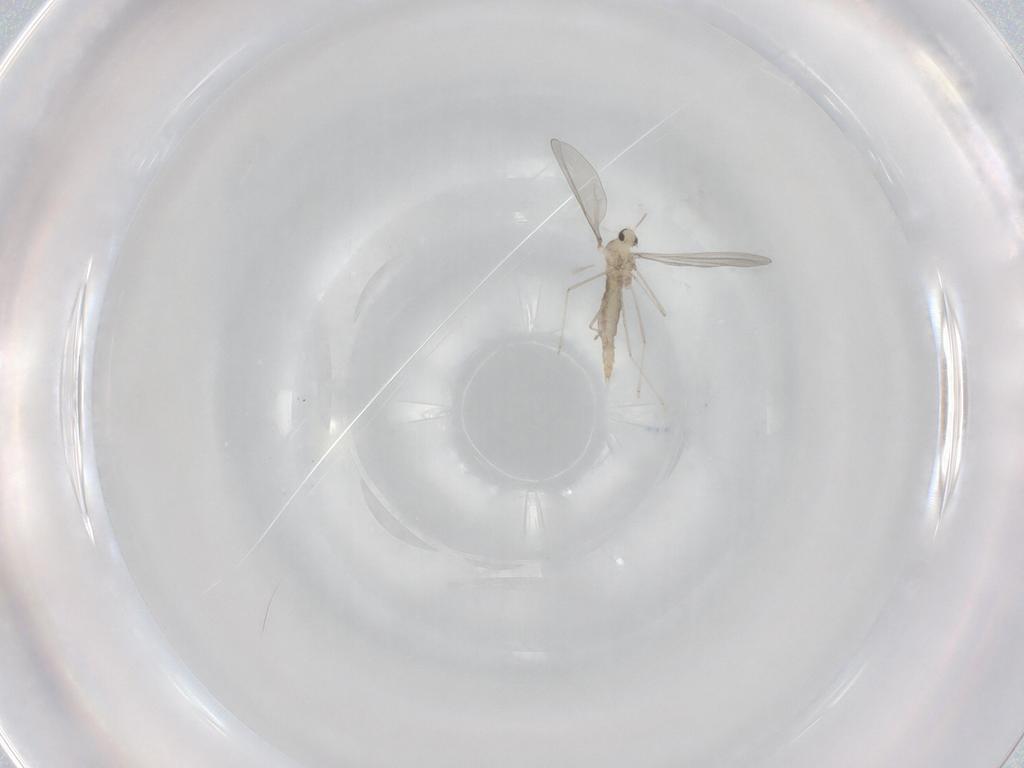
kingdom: Animalia
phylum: Arthropoda
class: Insecta
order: Diptera
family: Cecidomyiidae
